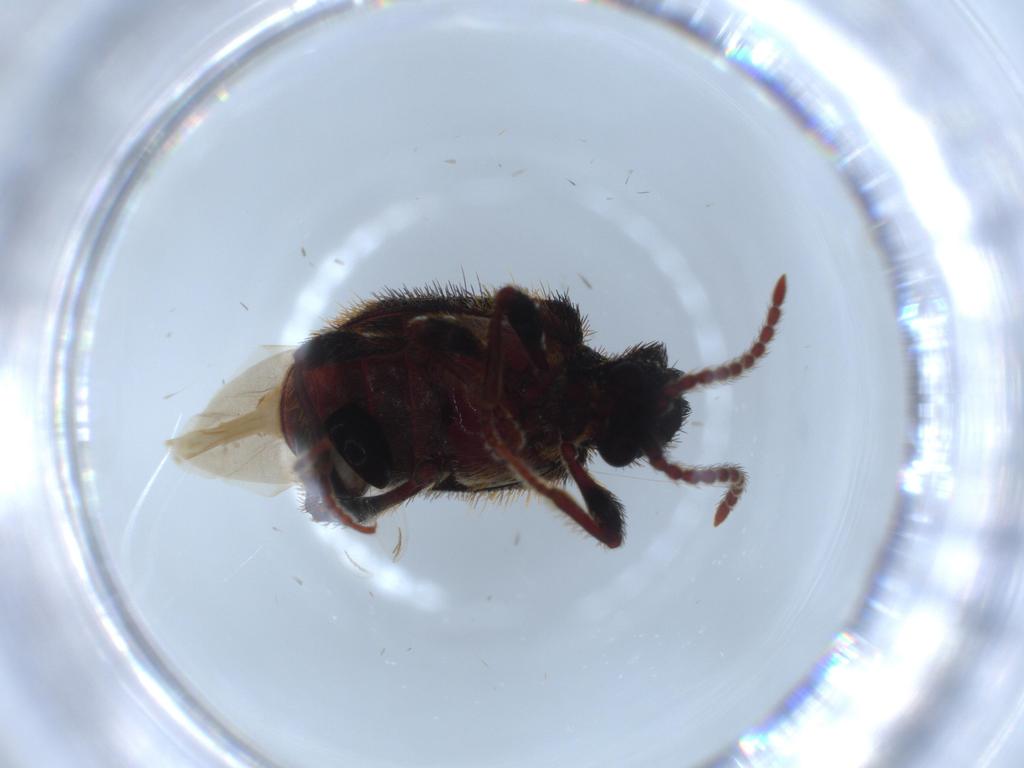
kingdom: Animalia
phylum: Arthropoda
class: Insecta
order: Coleoptera
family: Coccinellidae
